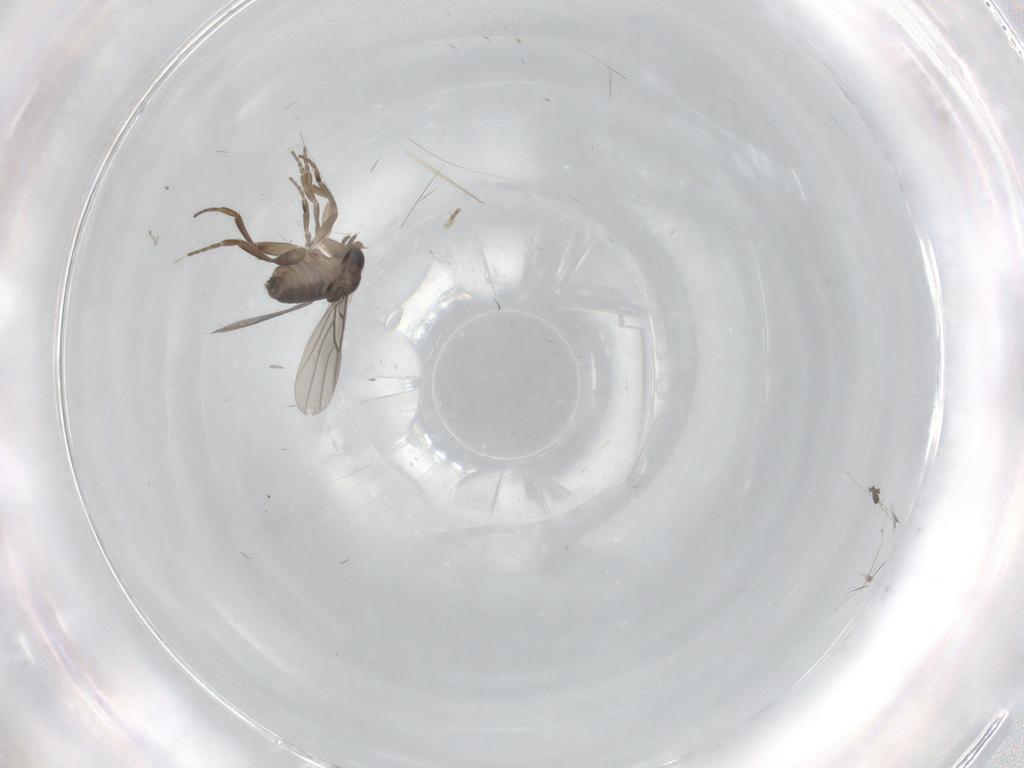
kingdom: Animalia
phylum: Arthropoda
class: Insecta
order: Diptera
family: Phoridae
